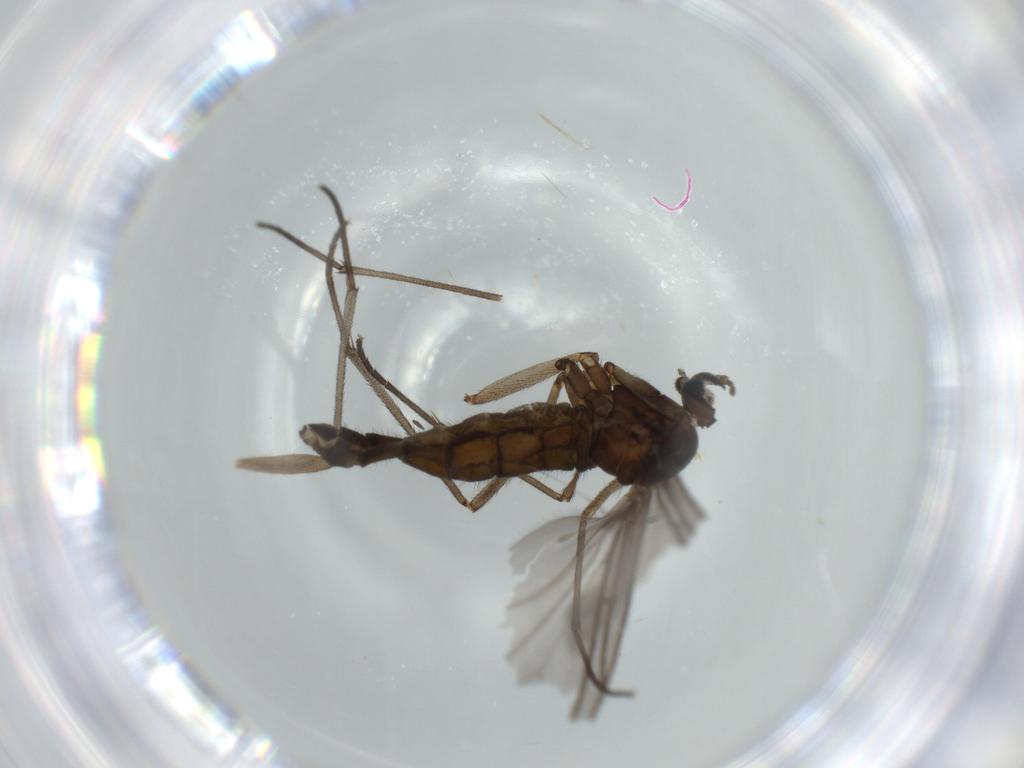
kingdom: Animalia
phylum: Arthropoda
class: Insecta
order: Diptera
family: Sciaridae
